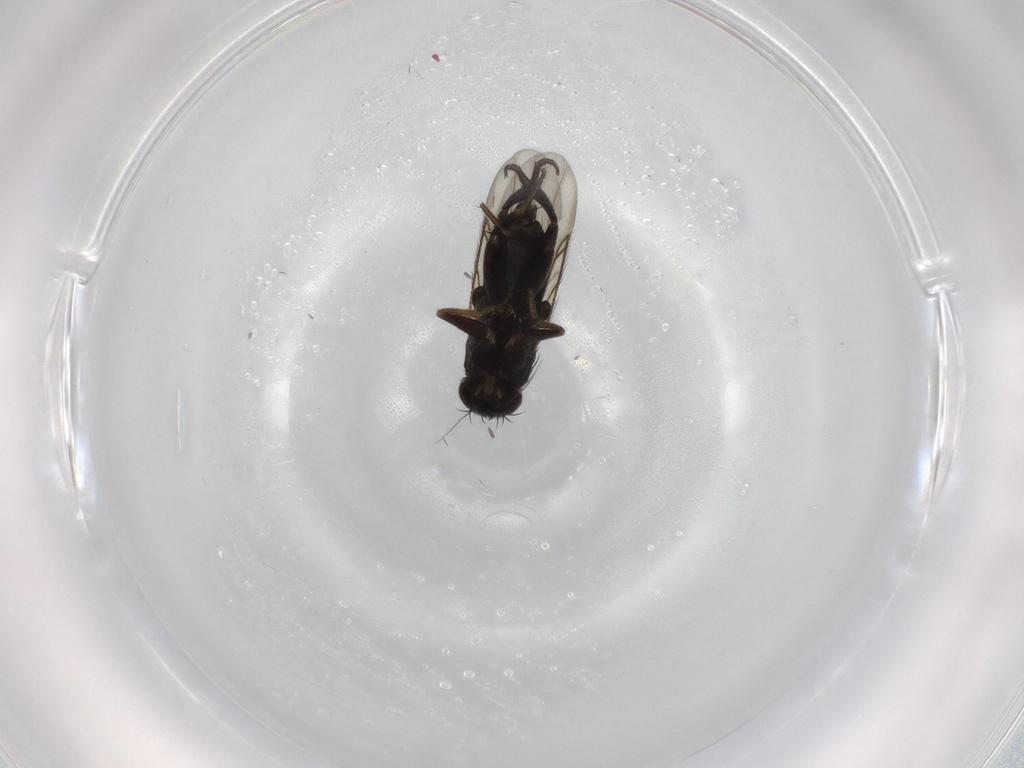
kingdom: Animalia
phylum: Arthropoda
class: Insecta
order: Diptera
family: Phoridae
